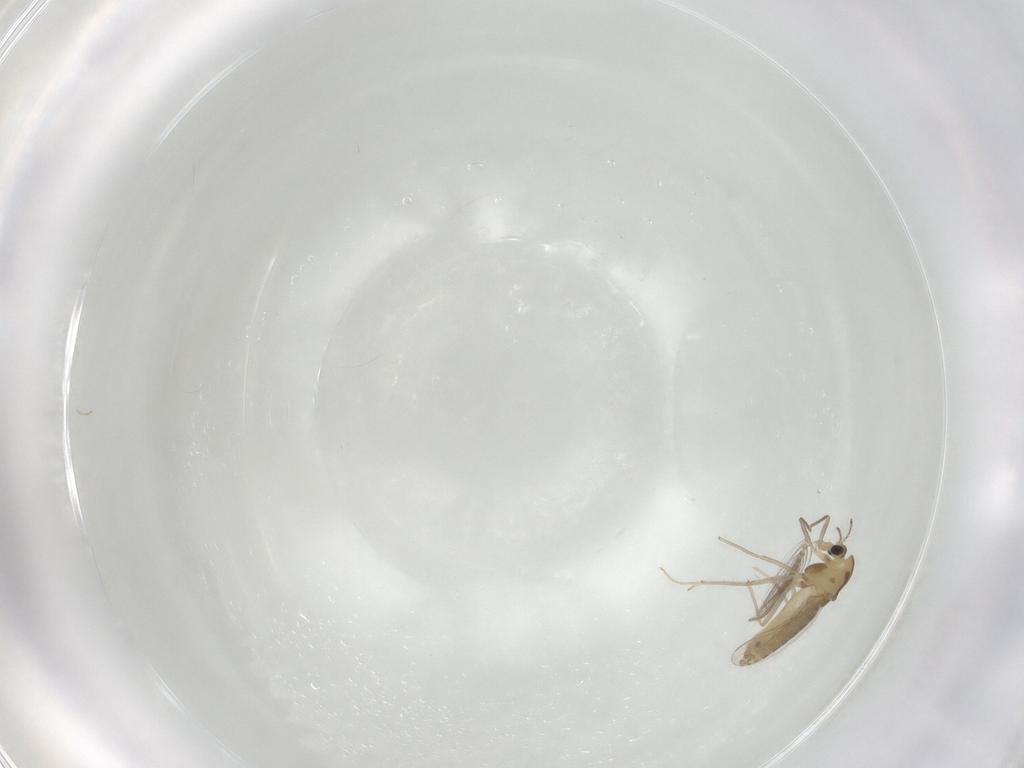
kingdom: Animalia
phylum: Arthropoda
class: Insecta
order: Diptera
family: Chironomidae
